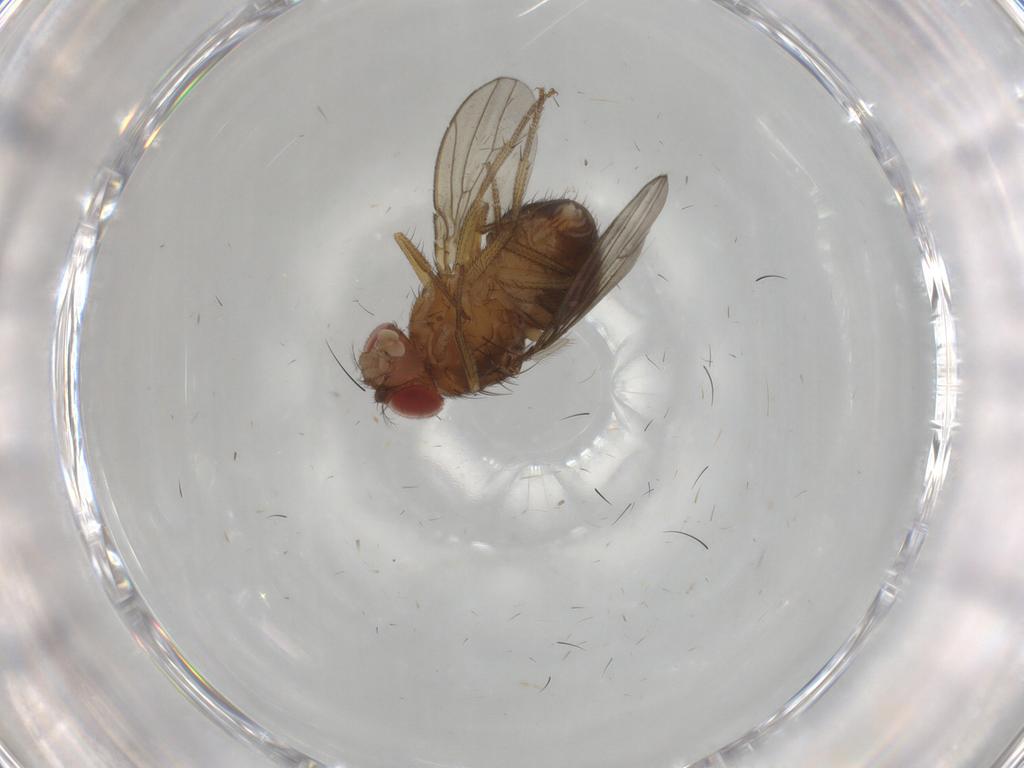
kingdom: Animalia
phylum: Arthropoda
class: Insecta
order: Diptera
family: Drosophilidae
